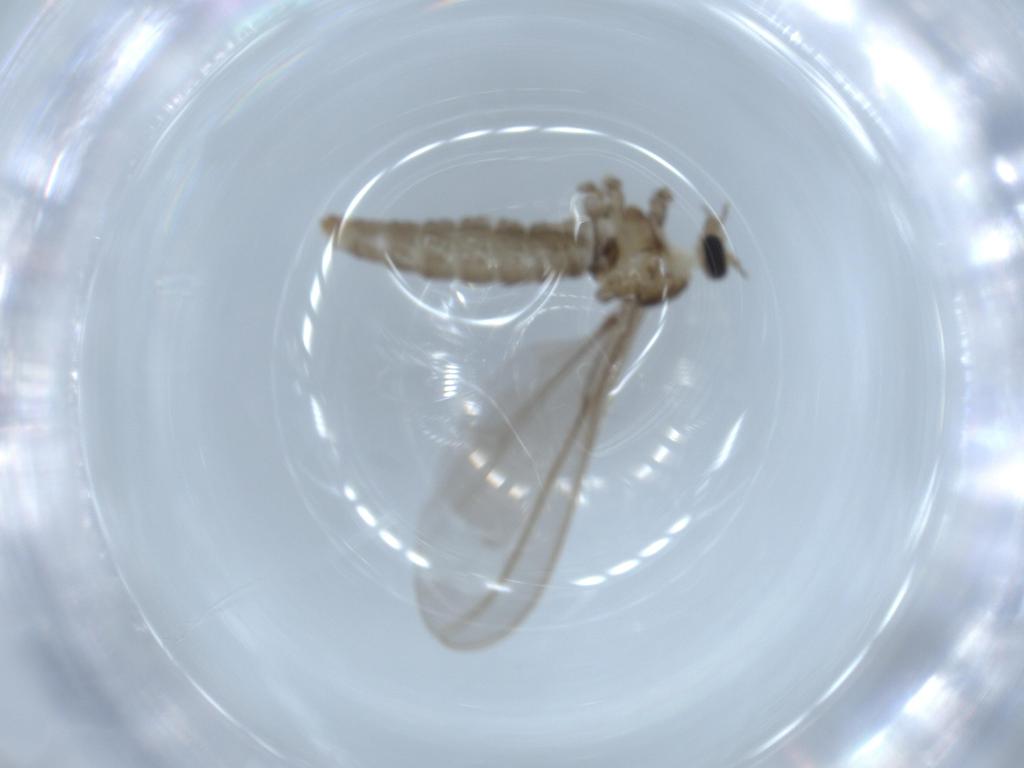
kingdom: Animalia
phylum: Arthropoda
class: Insecta
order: Diptera
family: Cecidomyiidae
